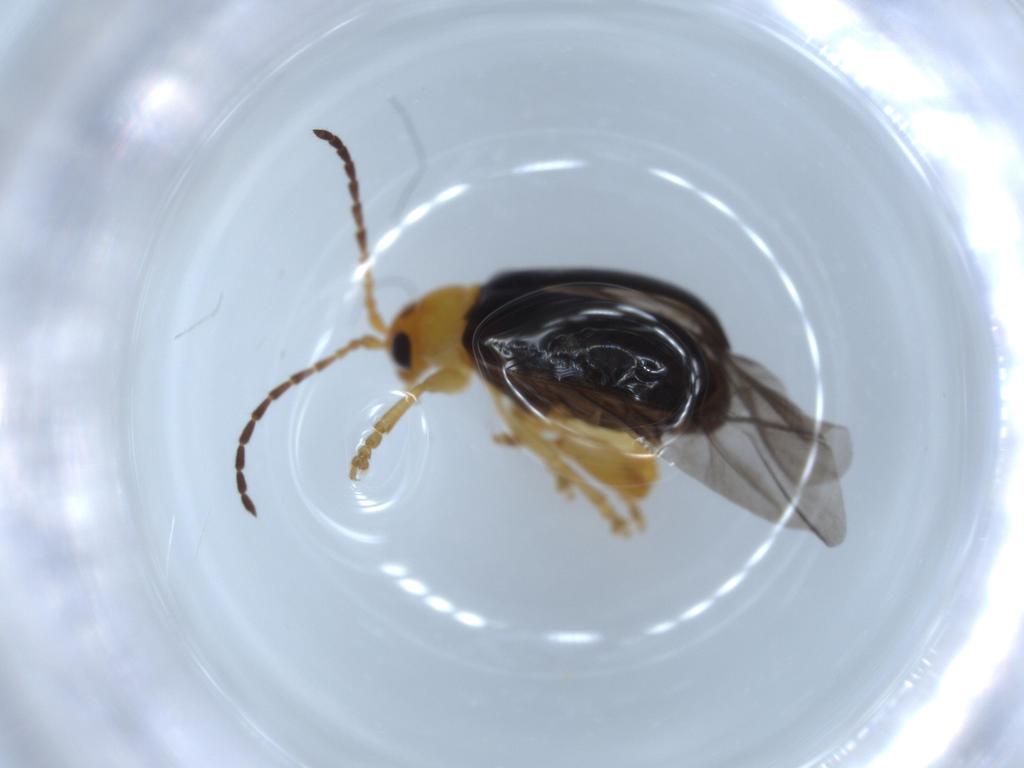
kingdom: Animalia
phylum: Arthropoda
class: Insecta
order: Coleoptera
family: Chrysomelidae
